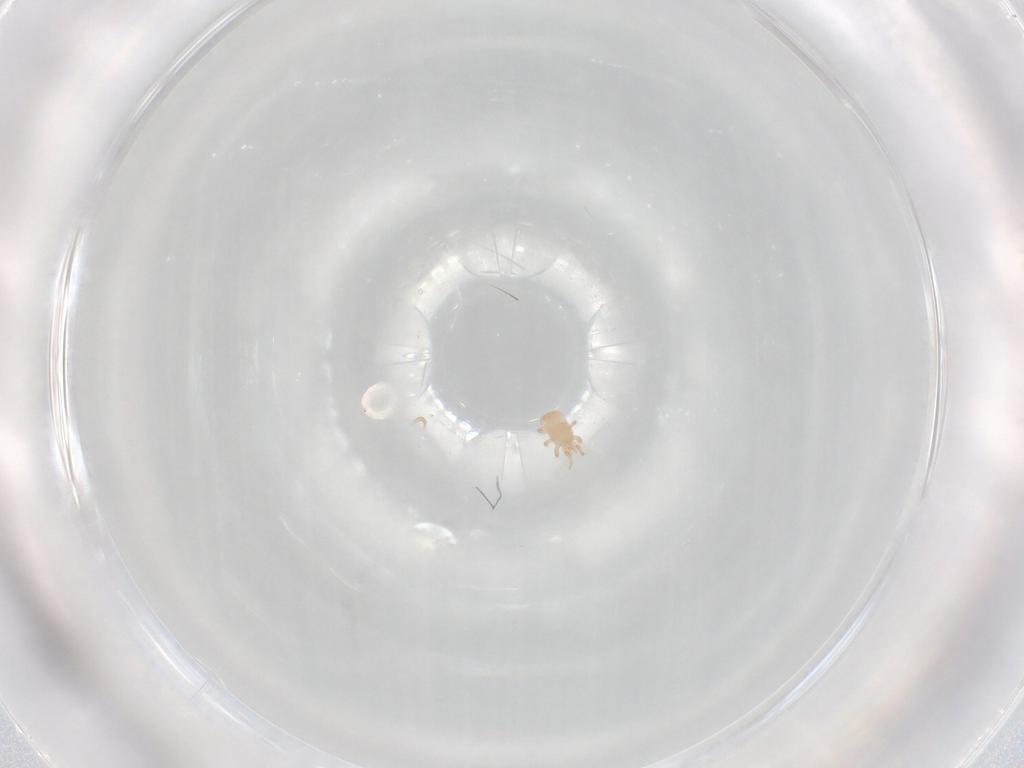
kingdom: Animalia
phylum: Arthropoda
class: Arachnida
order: Mesostigmata
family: Digamasellidae
